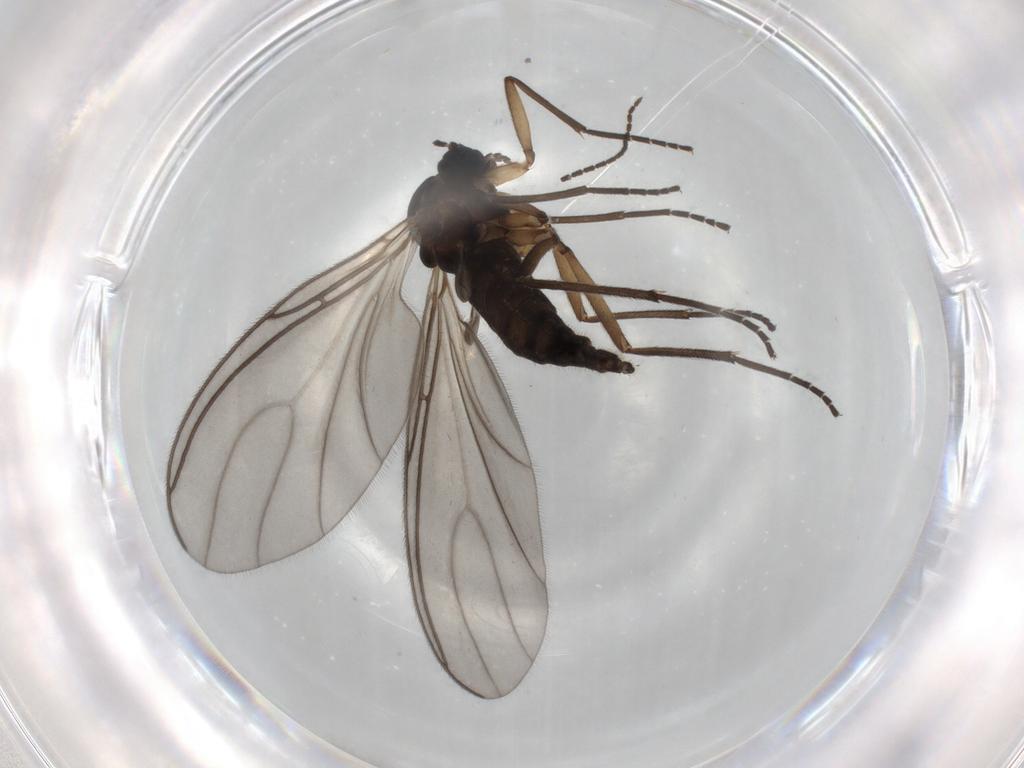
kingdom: Animalia
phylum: Arthropoda
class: Insecta
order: Diptera
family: Sciaridae
